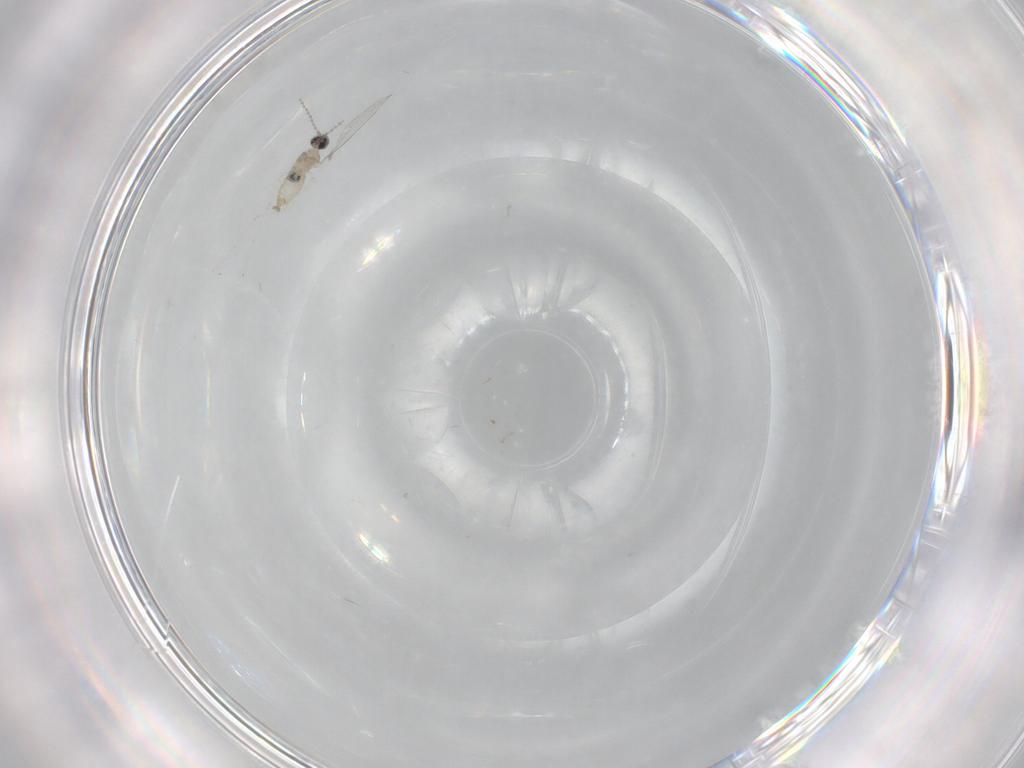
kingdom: Animalia
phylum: Arthropoda
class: Insecta
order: Diptera
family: Cecidomyiidae
